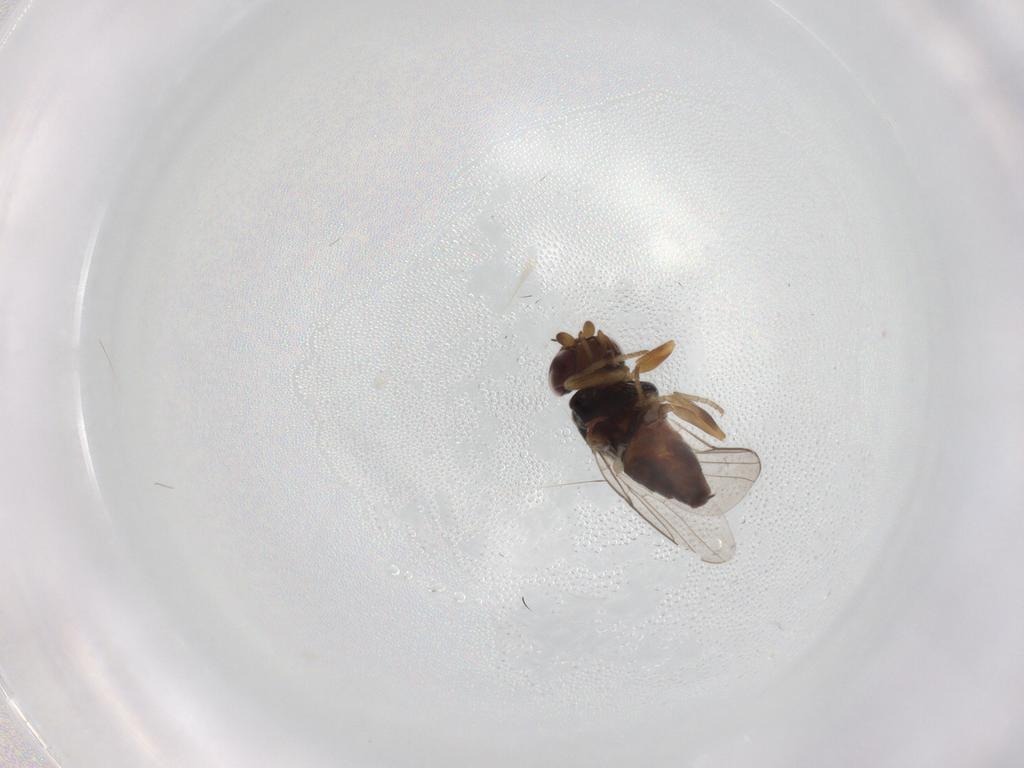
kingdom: Animalia
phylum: Arthropoda
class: Insecta
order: Diptera
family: Chloropidae
